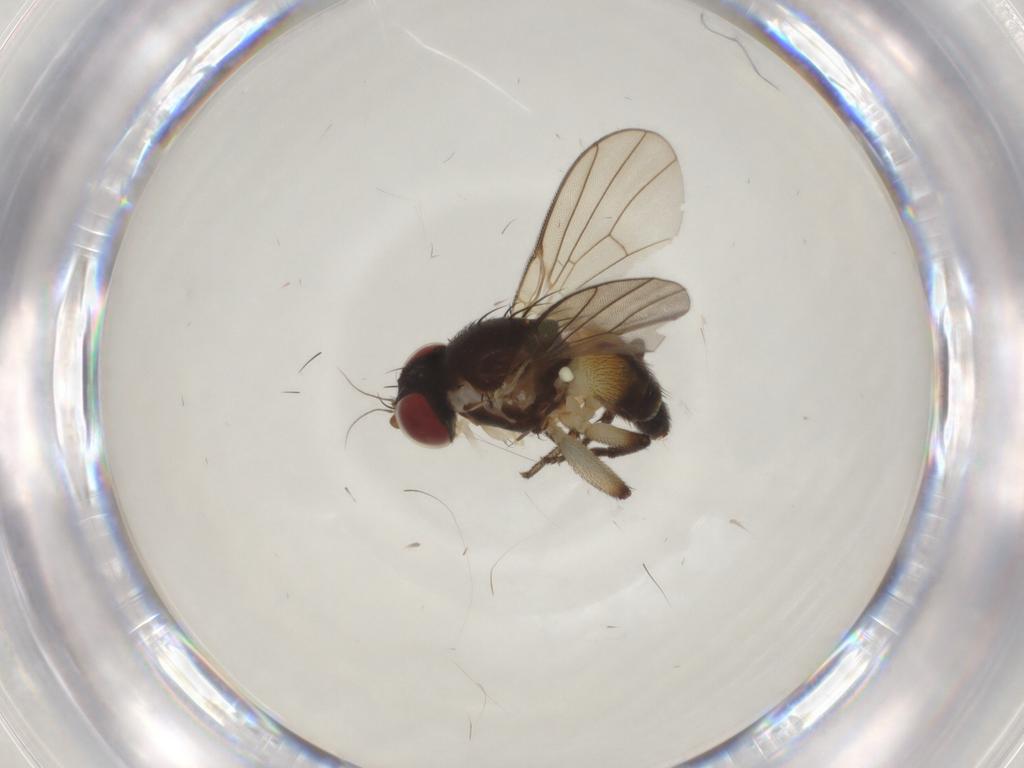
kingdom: Animalia
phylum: Arthropoda
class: Insecta
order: Diptera
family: Agromyzidae
